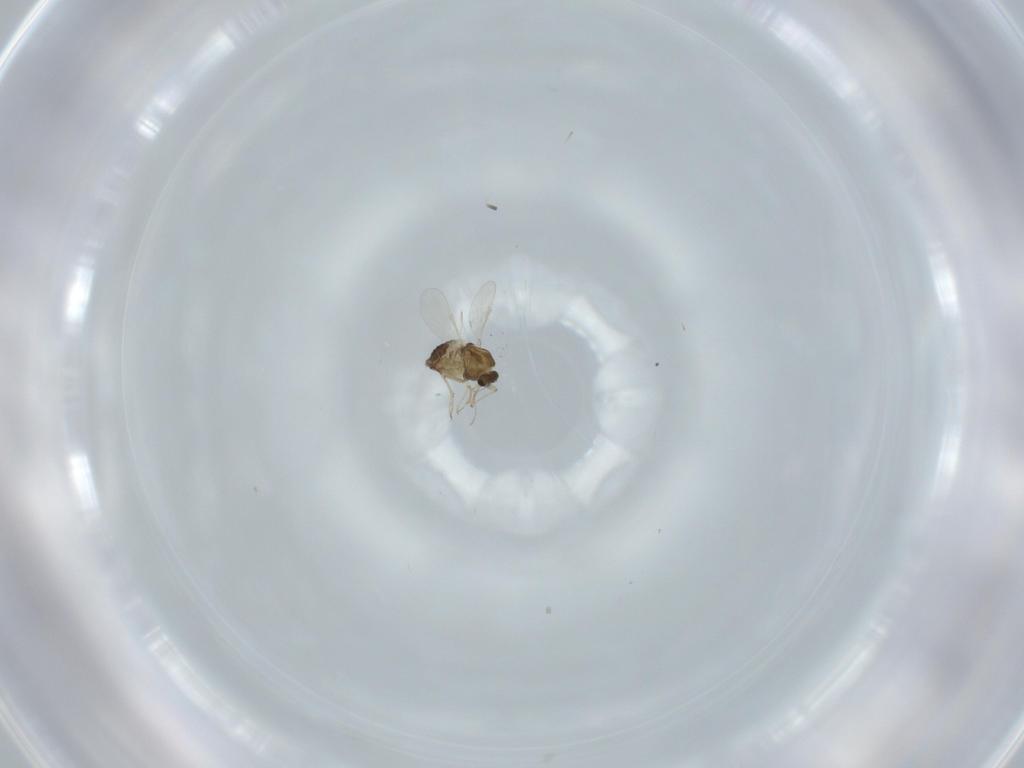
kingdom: Animalia
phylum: Arthropoda
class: Insecta
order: Diptera
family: Chironomidae
